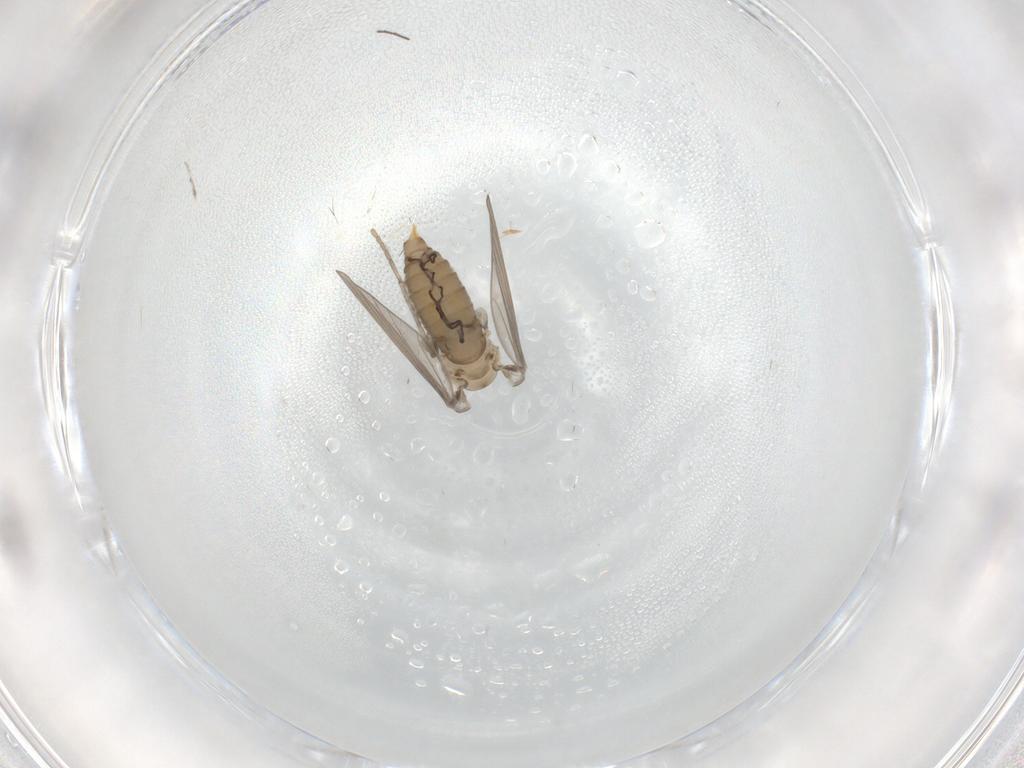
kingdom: Animalia
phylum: Arthropoda
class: Insecta
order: Diptera
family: Psychodidae
